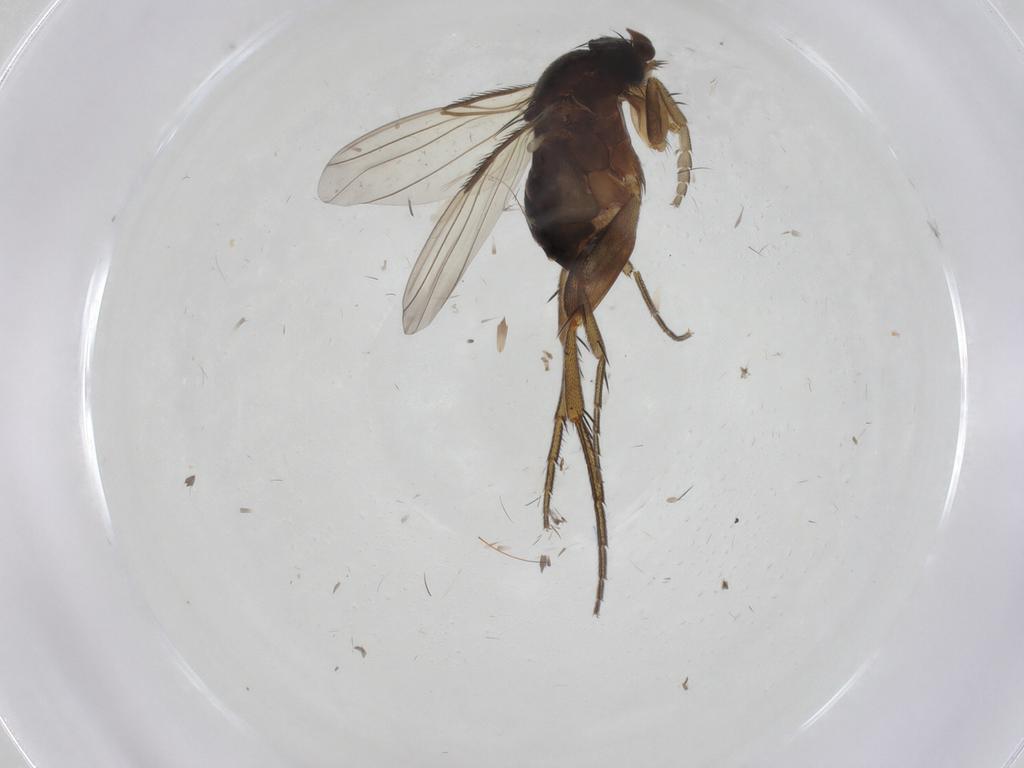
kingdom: Animalia
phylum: Arthropoda
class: Insecta
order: Diptera
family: Phoridae
